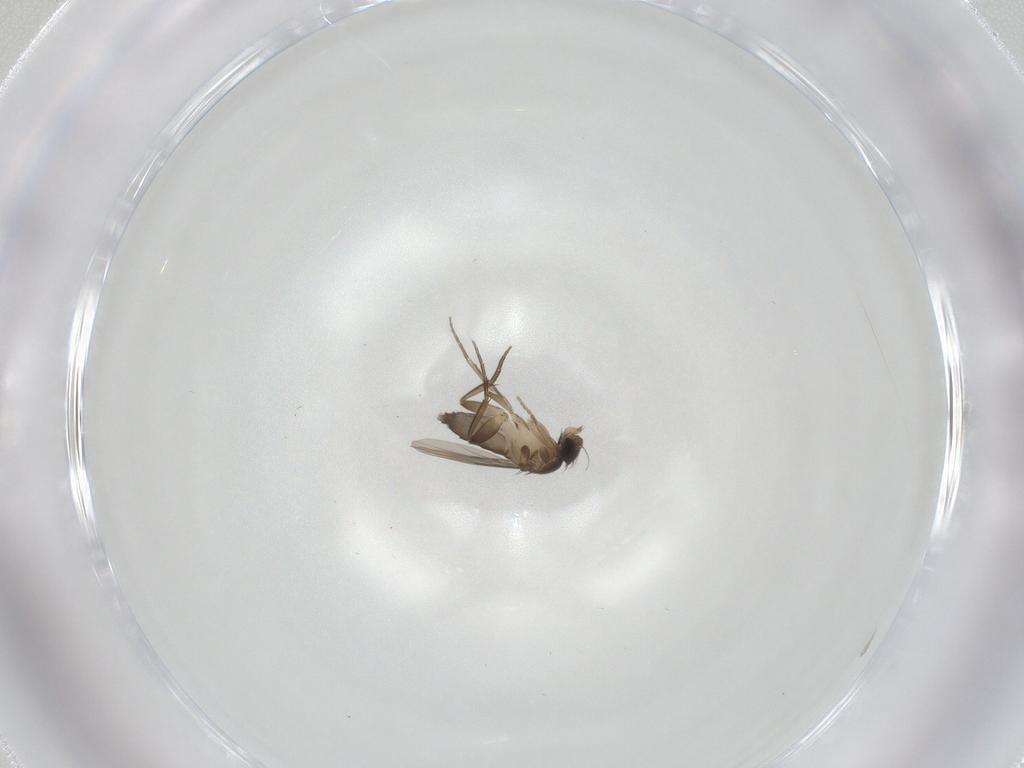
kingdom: Animalia
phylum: Arthropoda
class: Insecta
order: Diptera
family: Phoridae
